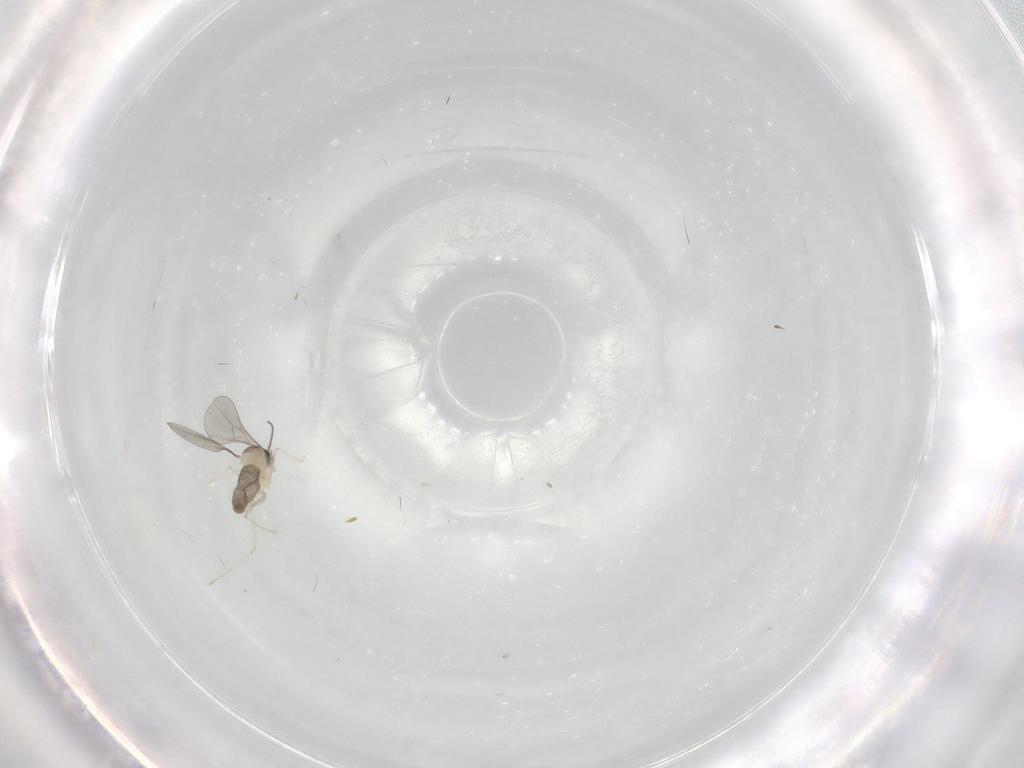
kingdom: Animalia
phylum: Arthropoda
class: Insecta
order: Diptera
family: Cecidomyiidae
